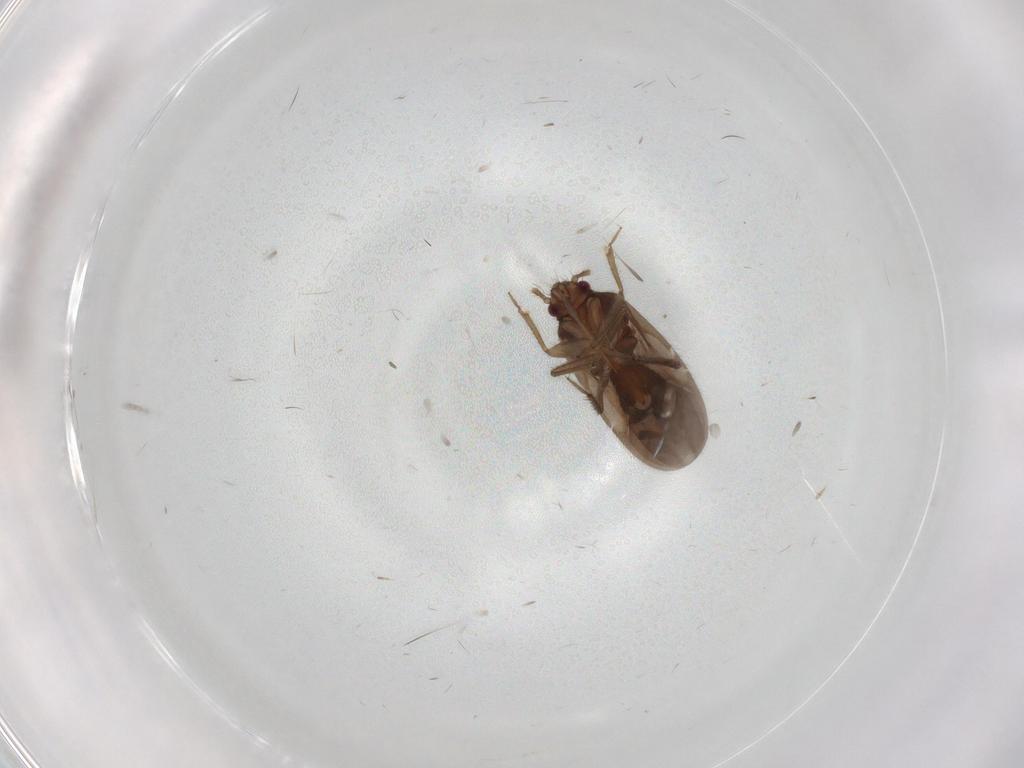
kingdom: Animalia
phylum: Arthropoda
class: Insecta
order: Hemiptera
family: Ceratocombidae
